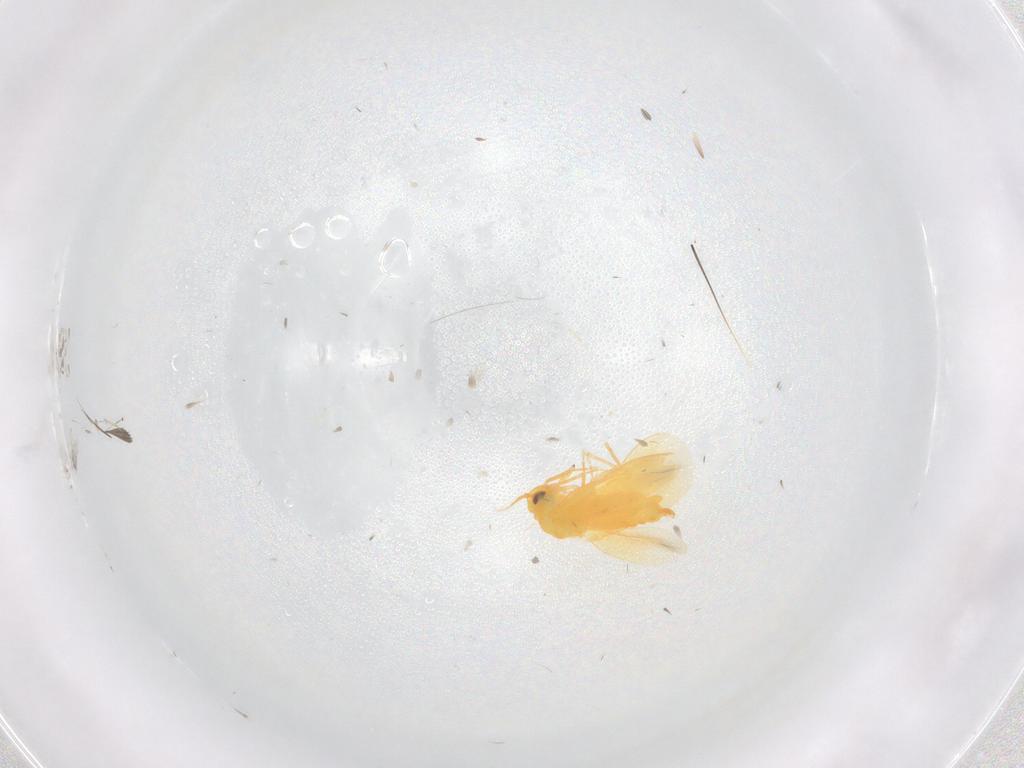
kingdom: Animalia
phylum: Arthropoda
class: Insecta
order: Hemiptera
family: Aleyrodidae
